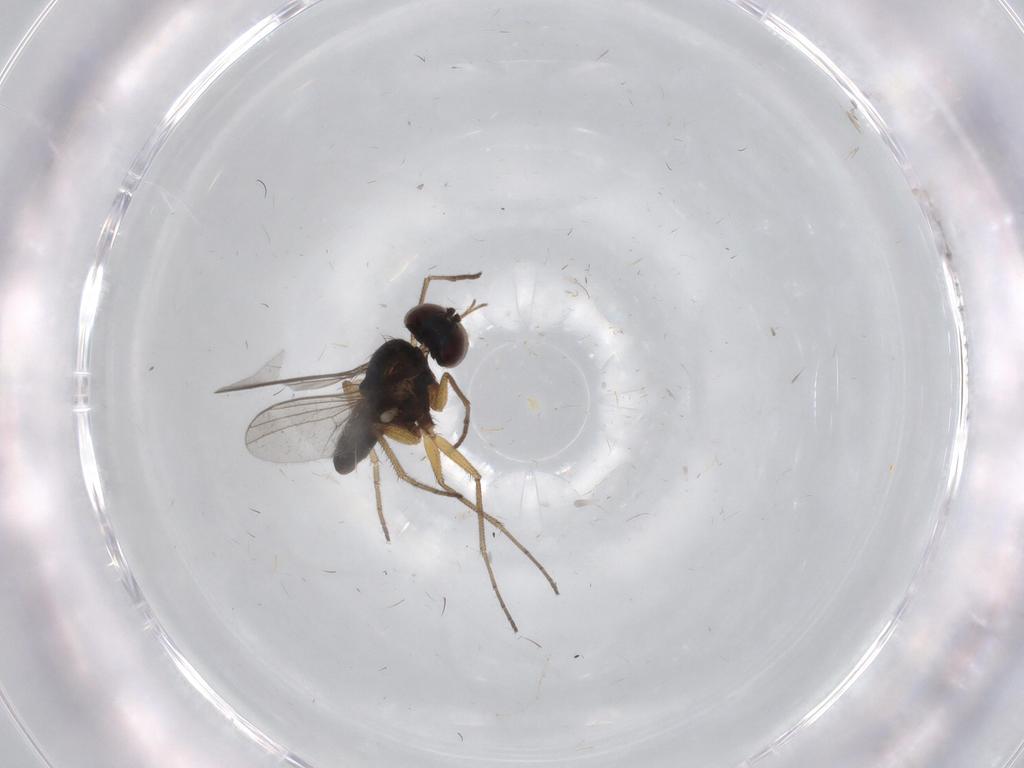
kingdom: Animalia
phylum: Arthropoda
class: Insecta
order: Diptera
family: Dolichopodidae
